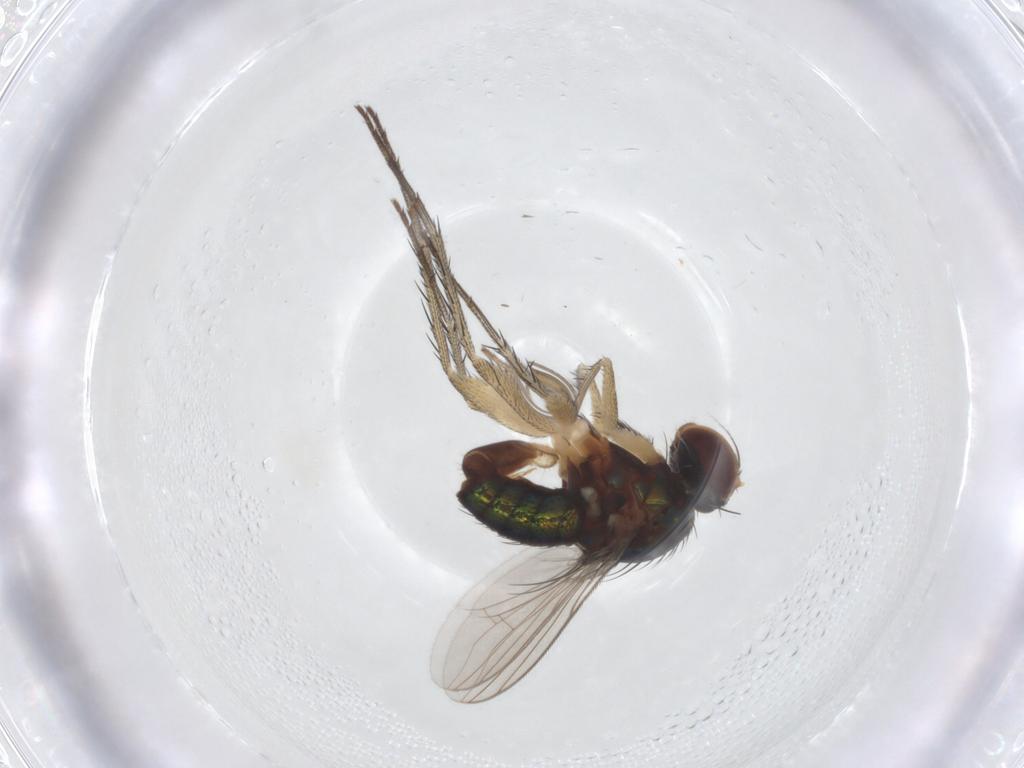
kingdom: Animalia
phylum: Arthropoda
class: Insecta
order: Diptera
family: Dolichopodidae
